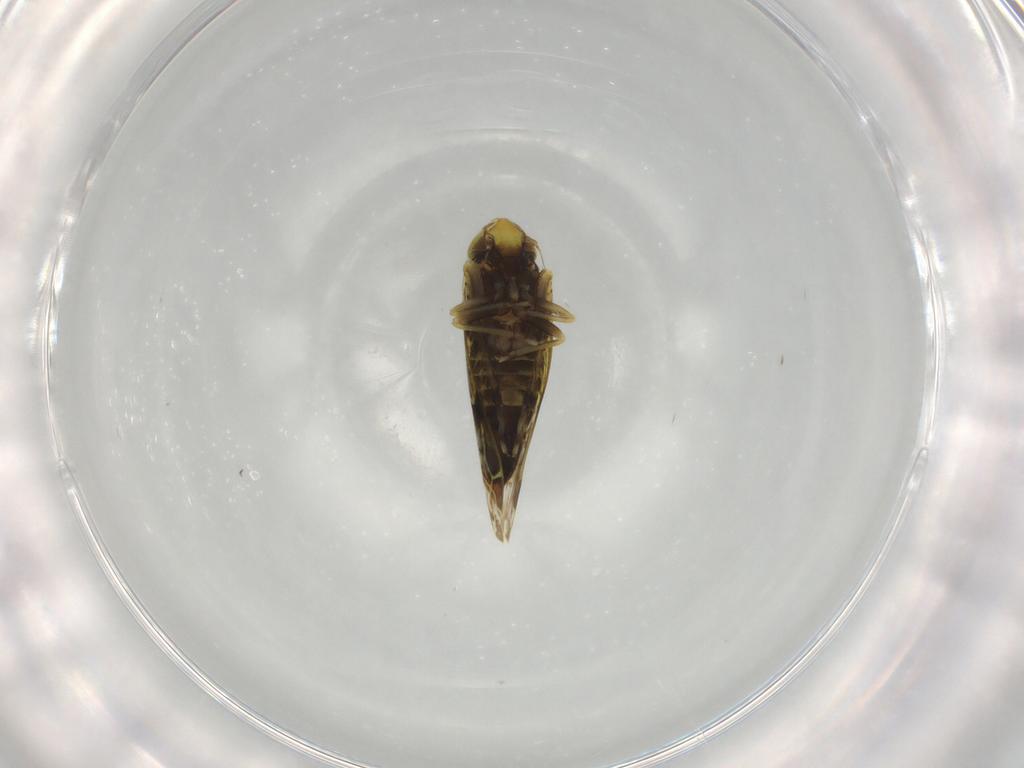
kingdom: Animalia
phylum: Arthropoda
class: Insecta
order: Hemiptera
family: Cicadellidae
